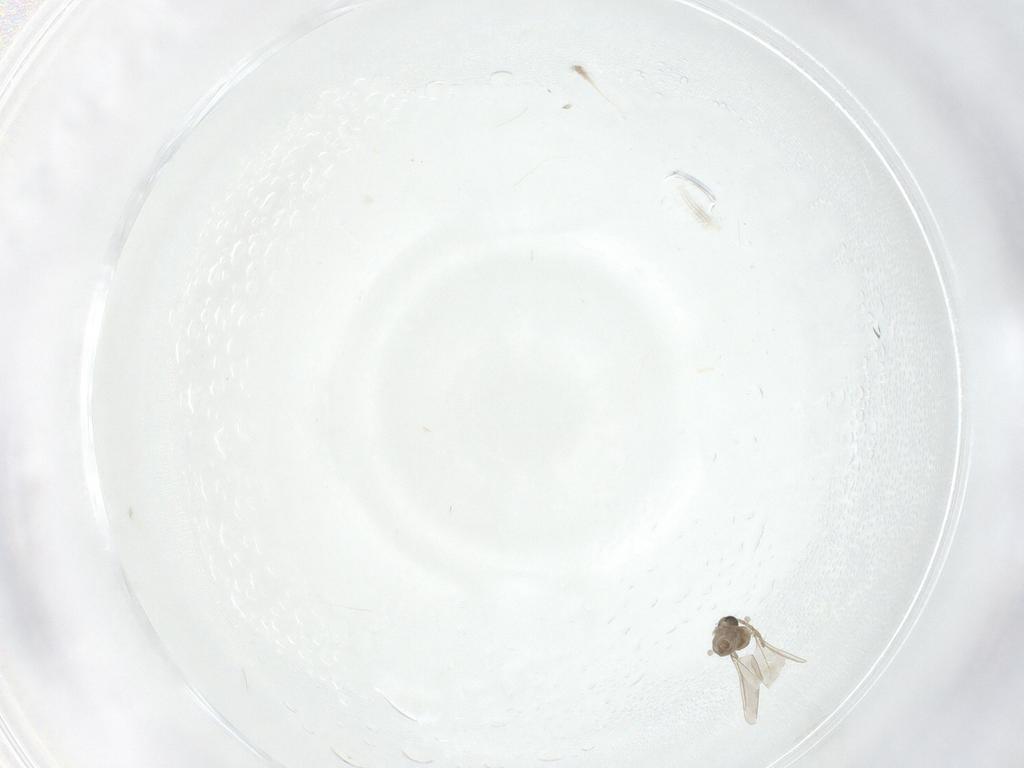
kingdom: Animalia
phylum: Arthropoda
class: Insecta
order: Diptera
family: Cecidomyiidae
